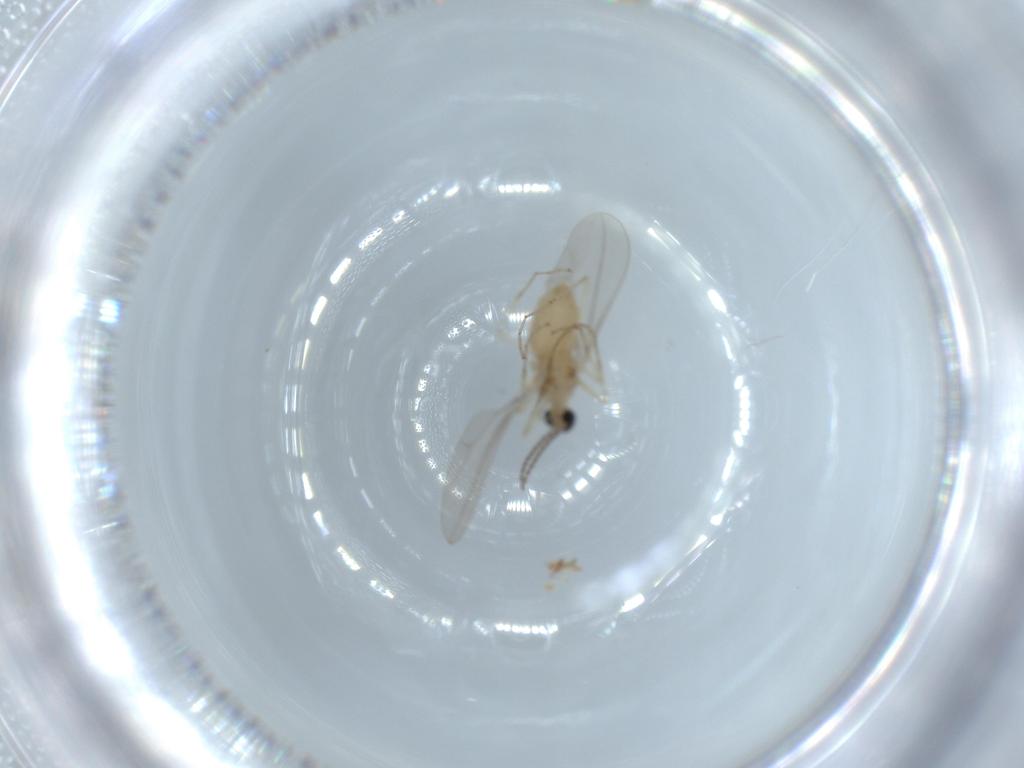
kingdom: Animalia
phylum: Arthropoda
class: Insecta
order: Diptera
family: Cecidomyiidae
